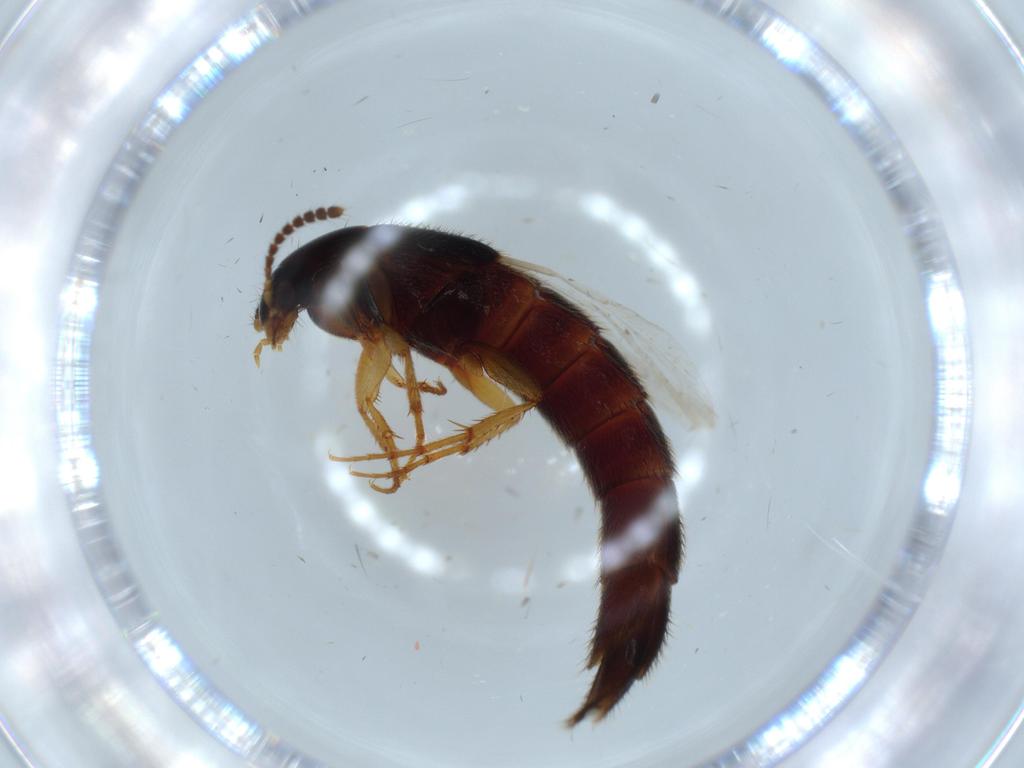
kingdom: Animalia
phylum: Arthropoda
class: Insecta
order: Coleoptera
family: Staphylinidae
